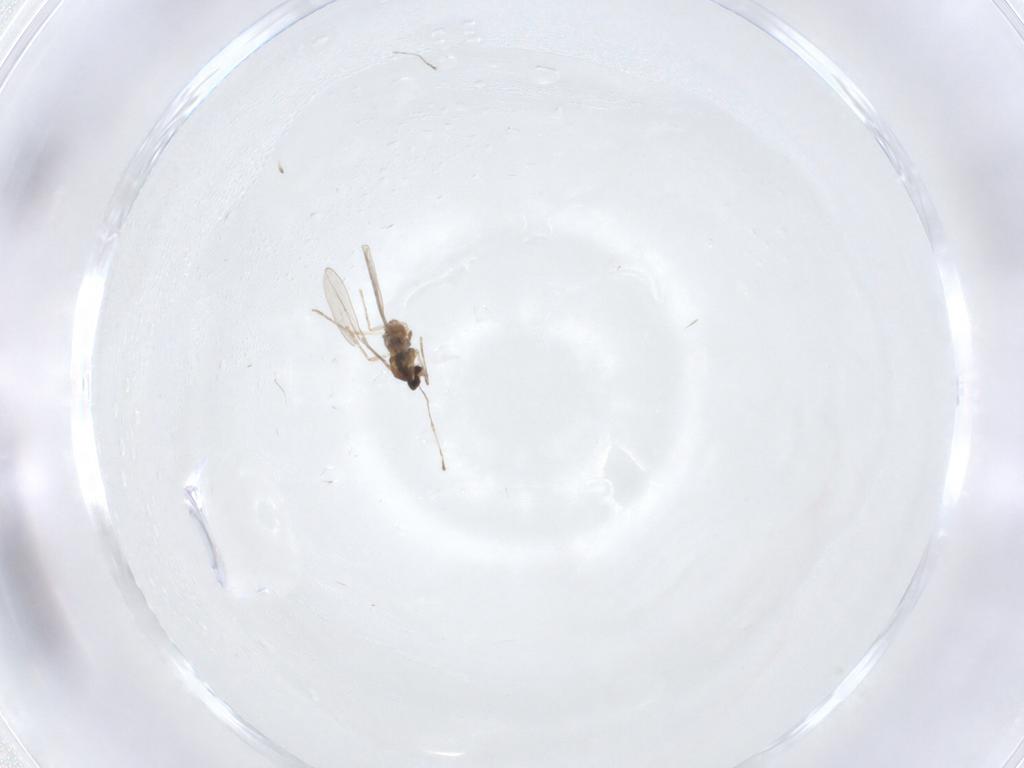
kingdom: Animalia
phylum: Arthropoda
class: Insecta
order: Diptera
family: Cecidomyiidae
